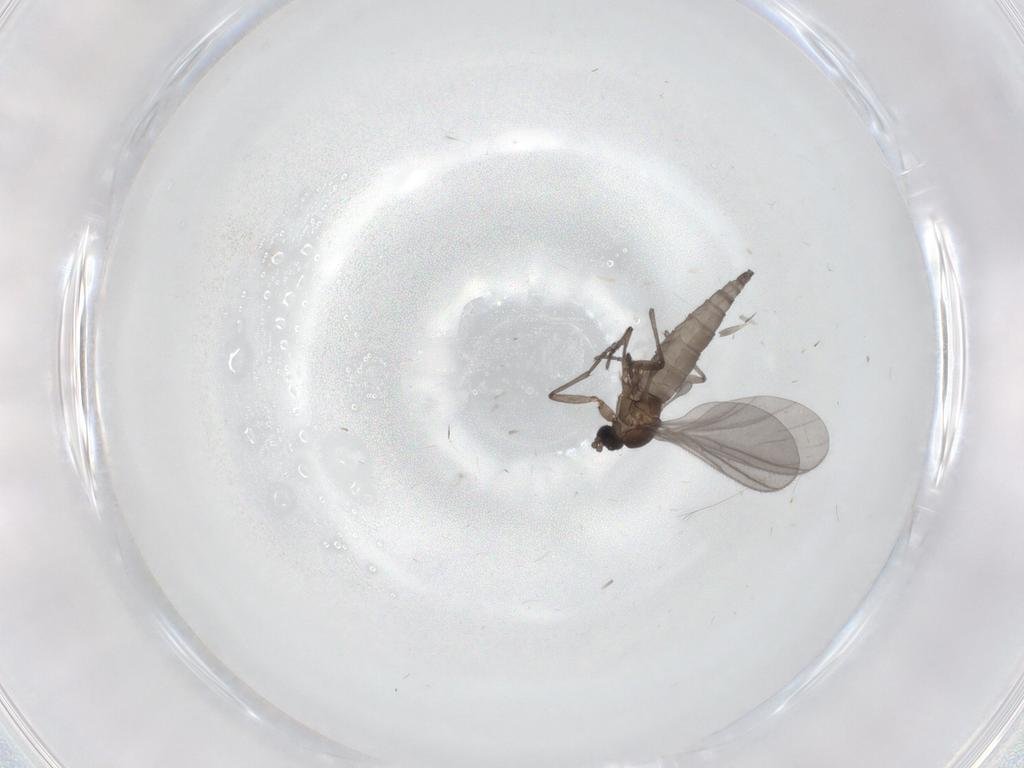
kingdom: Animalia
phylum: Arthropoda
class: Insecta
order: Diptera
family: Sciaridae
